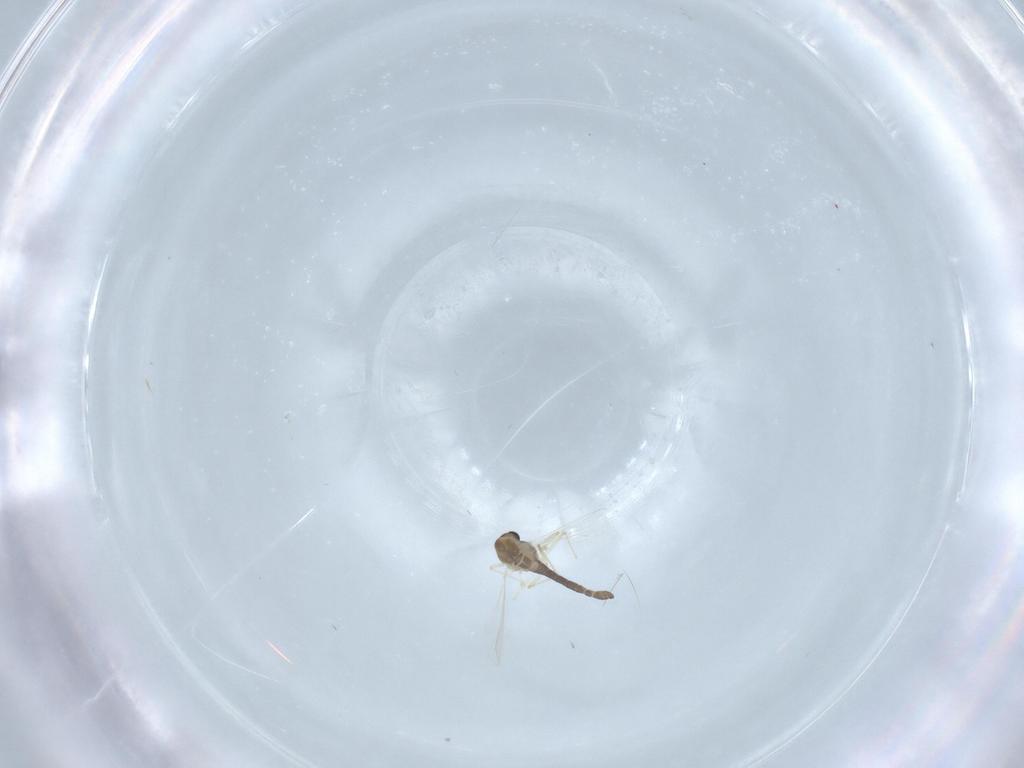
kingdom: Animalia
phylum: Arthropoda
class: Insecta
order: Diptera
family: Chironomidae
